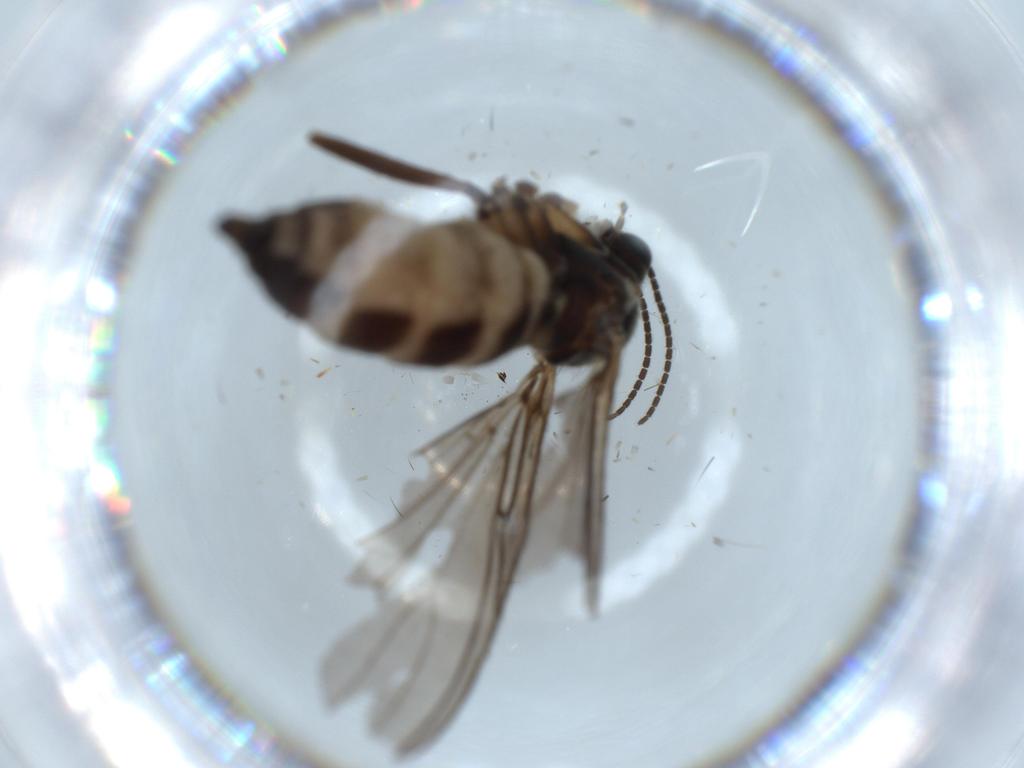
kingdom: Animalia
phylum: Arthropoda
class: Insecta
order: Diptera
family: Sciaridae
